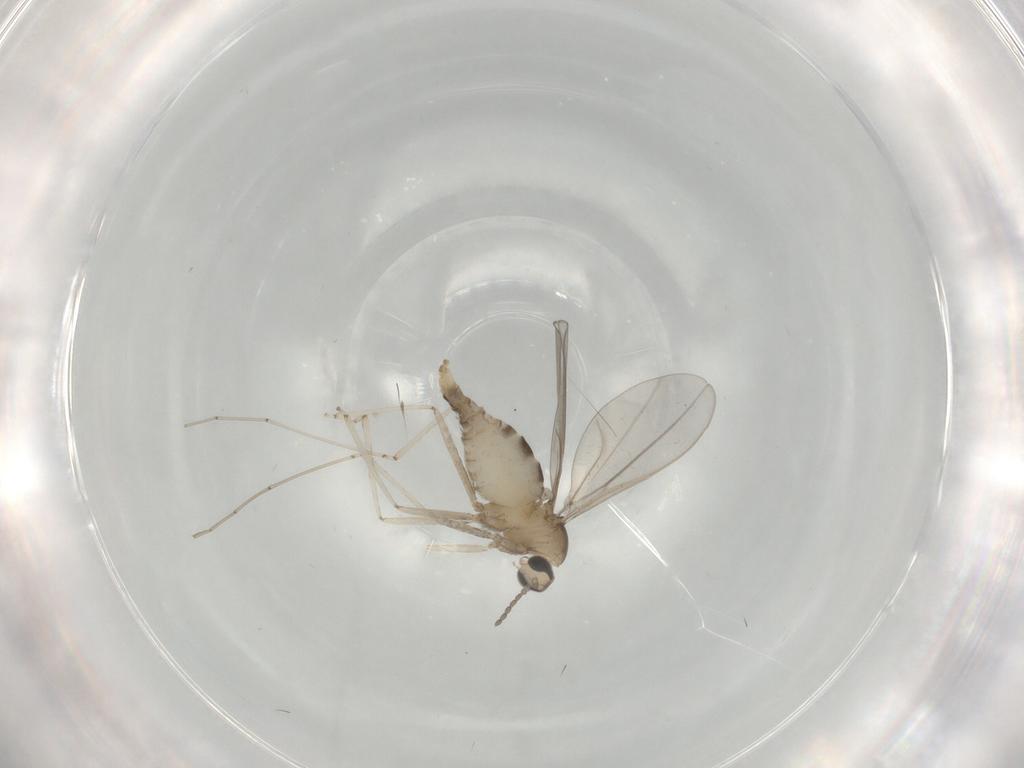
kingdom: Animalia
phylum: Arthropoda
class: Insecta
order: Diptera
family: Cecidomyiidae
